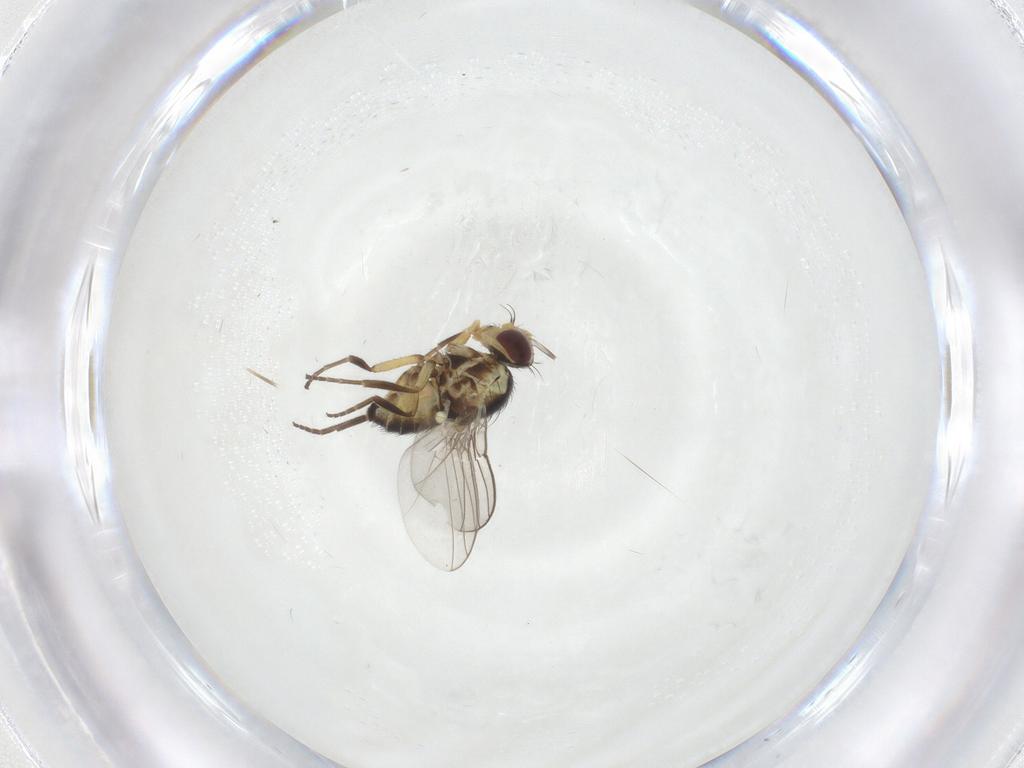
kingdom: Animalia
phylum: Arthropoda
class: Insecta
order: Diptera
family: Agromyzidae
